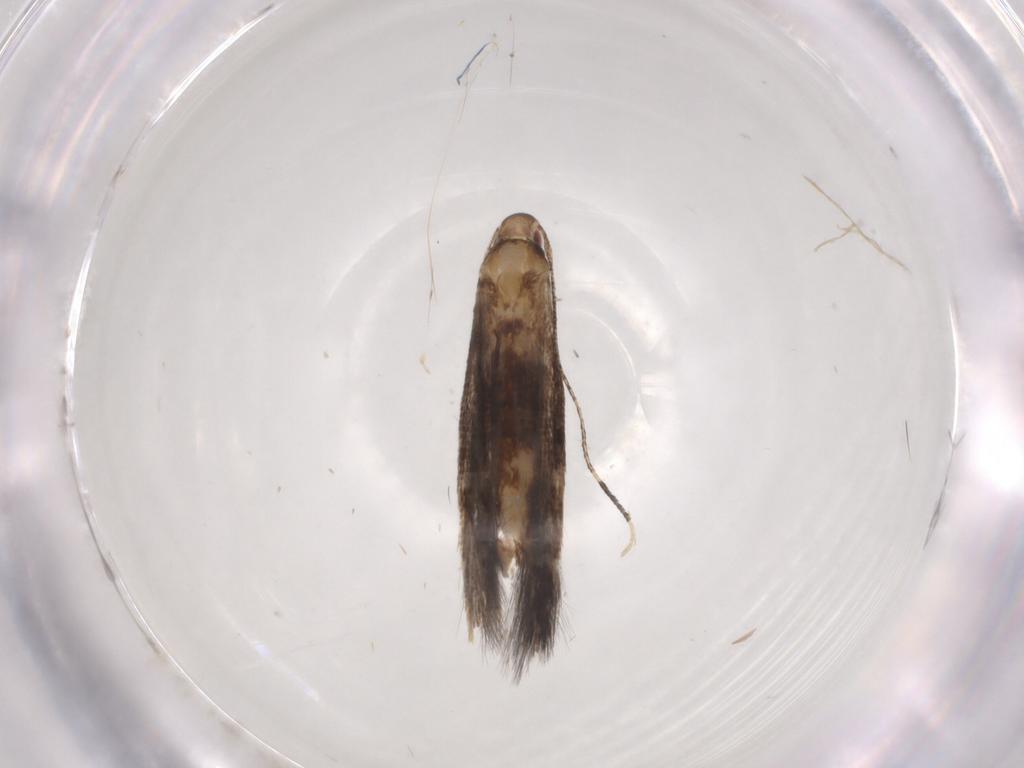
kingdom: Animalia
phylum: Arthropoda
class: Insecta
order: Lepidoptera
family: Cosmopterigidae
